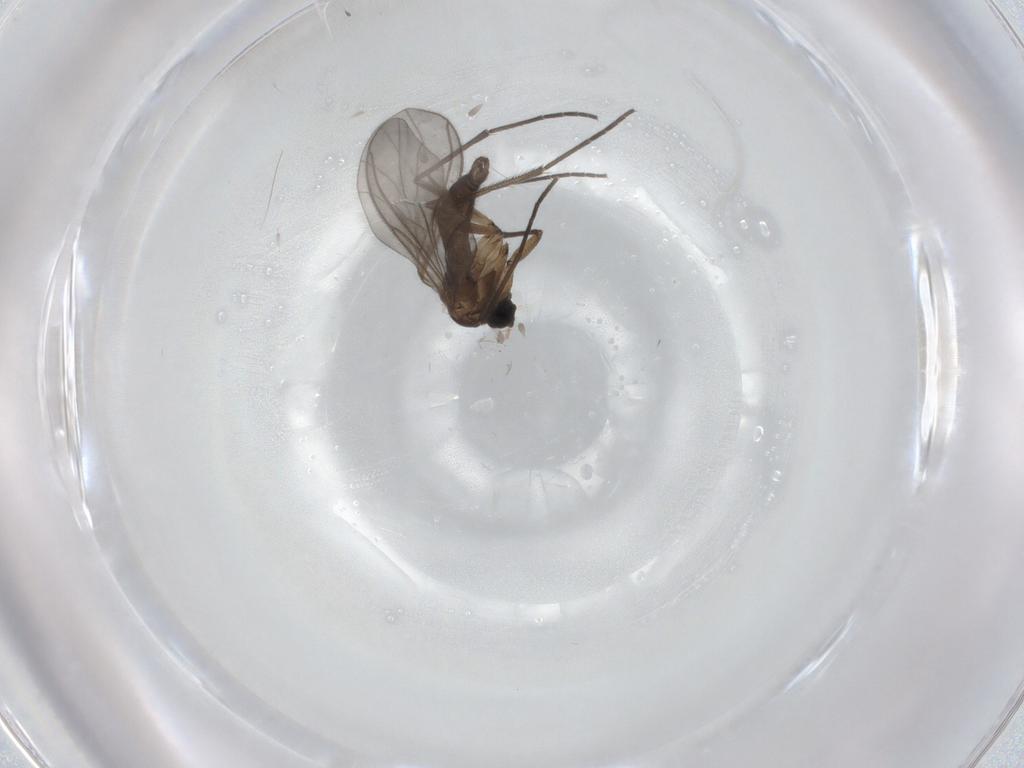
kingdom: Animalia
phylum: Arthropoda
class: Insecta
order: Diptera
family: Sciaridae
